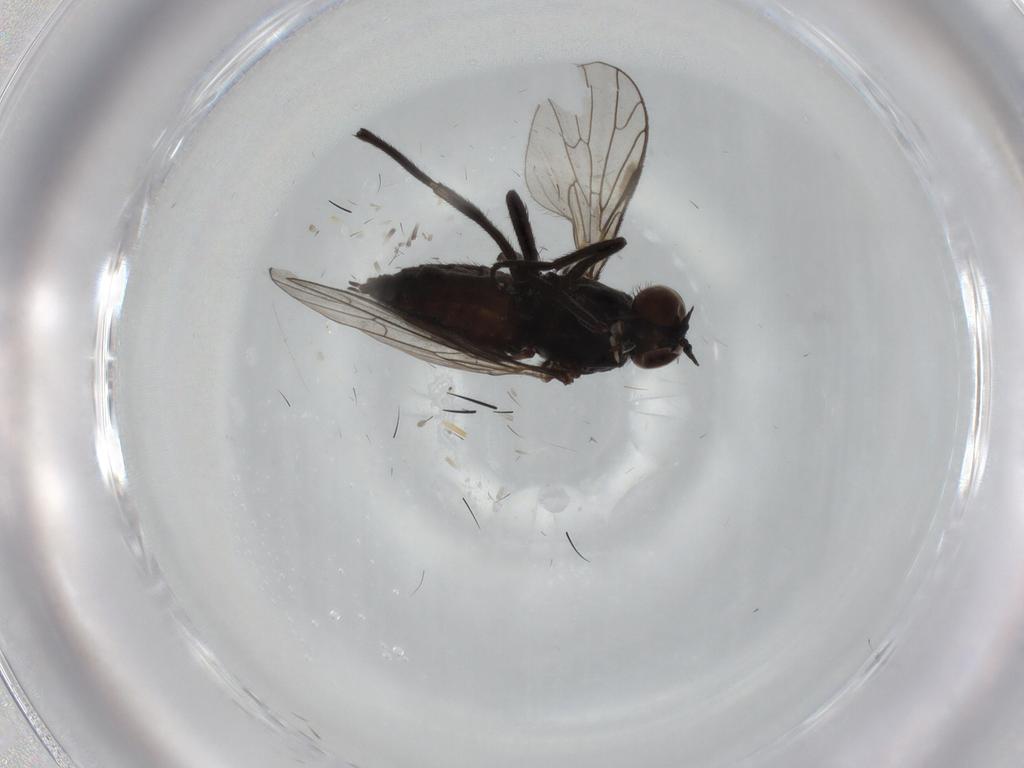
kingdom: Animalia
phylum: Arthropoda
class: Insecta
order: Diptera
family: Empididae
